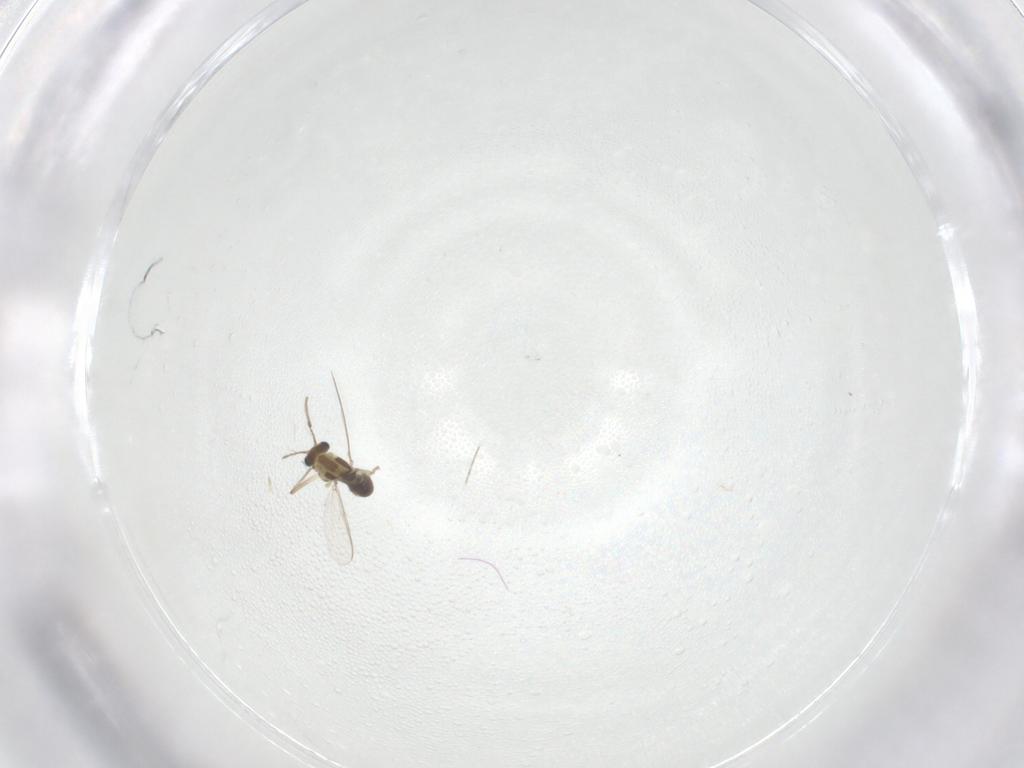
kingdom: Animalia
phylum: Arthropoda
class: Insecta
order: Diptera
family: Chironomidae
